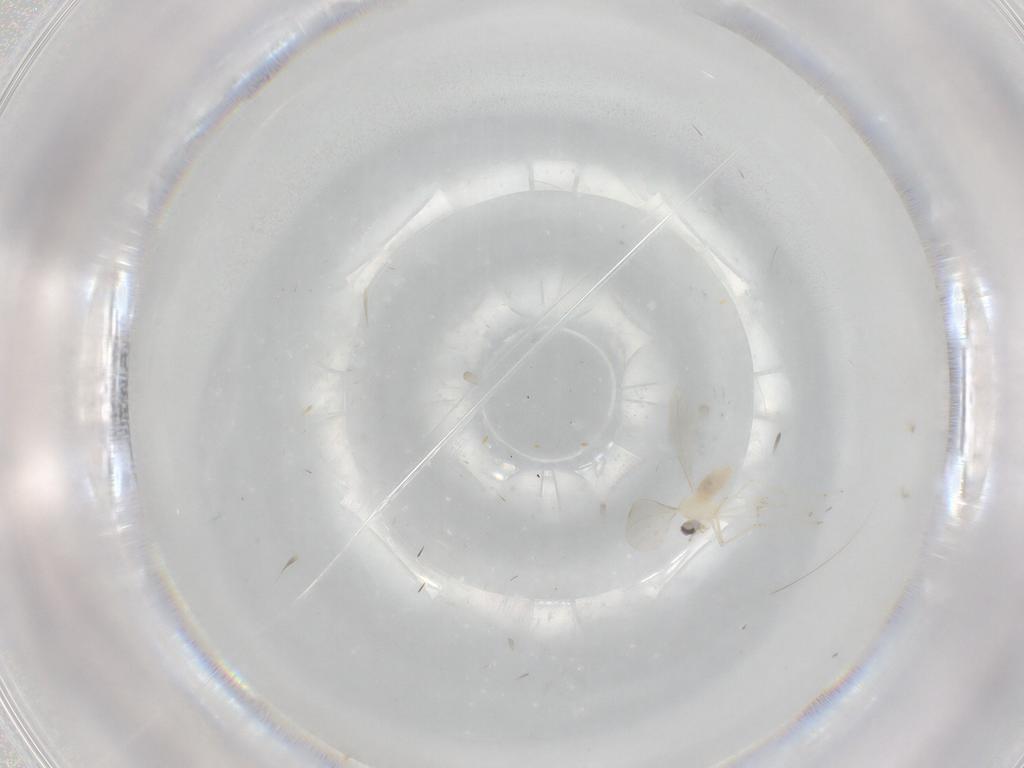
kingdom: Animalia
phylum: Arthropoda
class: Insecta
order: Diptera
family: Cecidomyiidae
